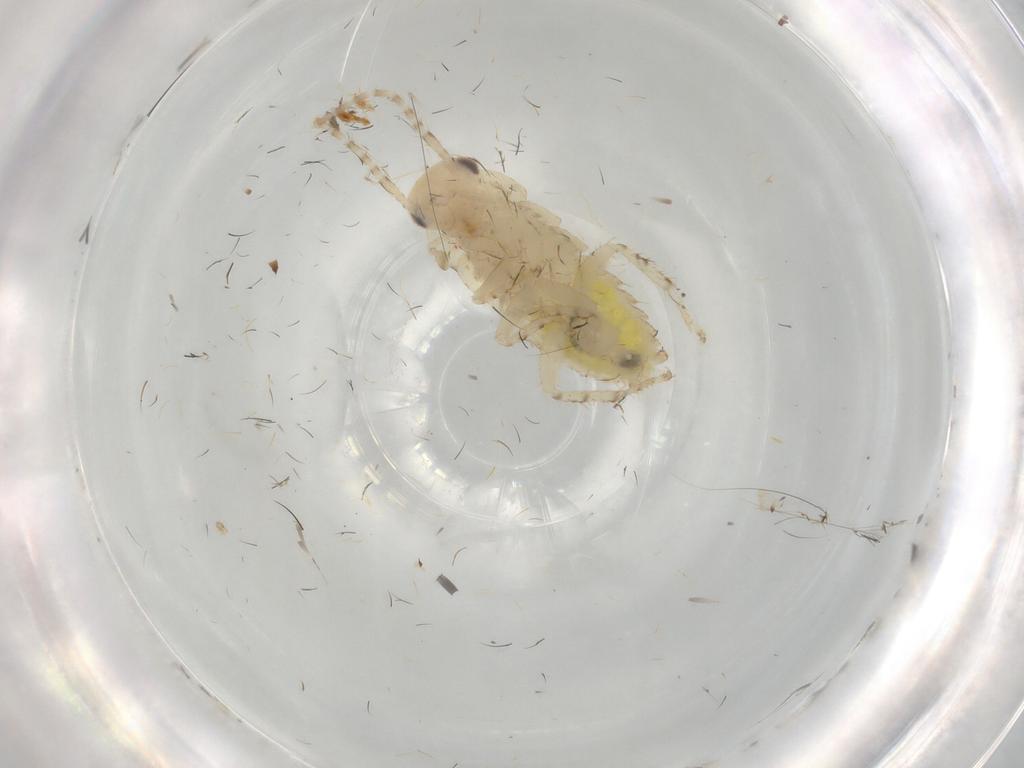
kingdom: Animalia
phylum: Arthropoda
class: Insecta
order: Blattodea
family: Ectobiidae
